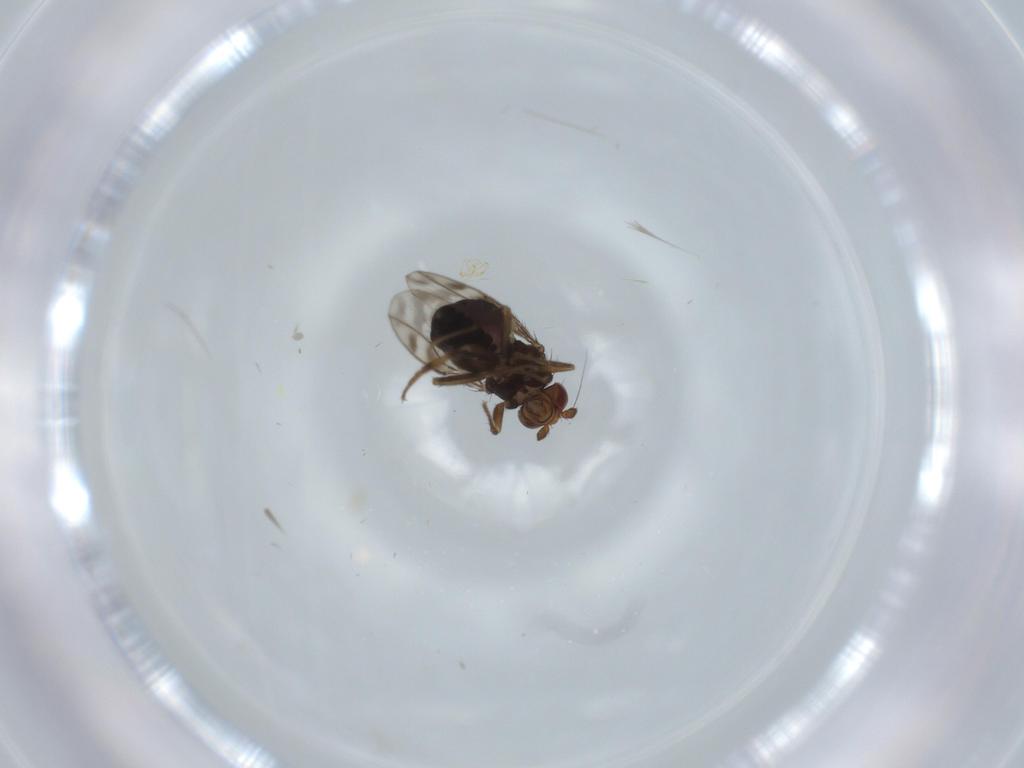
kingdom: Animalia
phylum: Arthropoda
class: Insecta
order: Diptera
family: Sphaeroceridae
